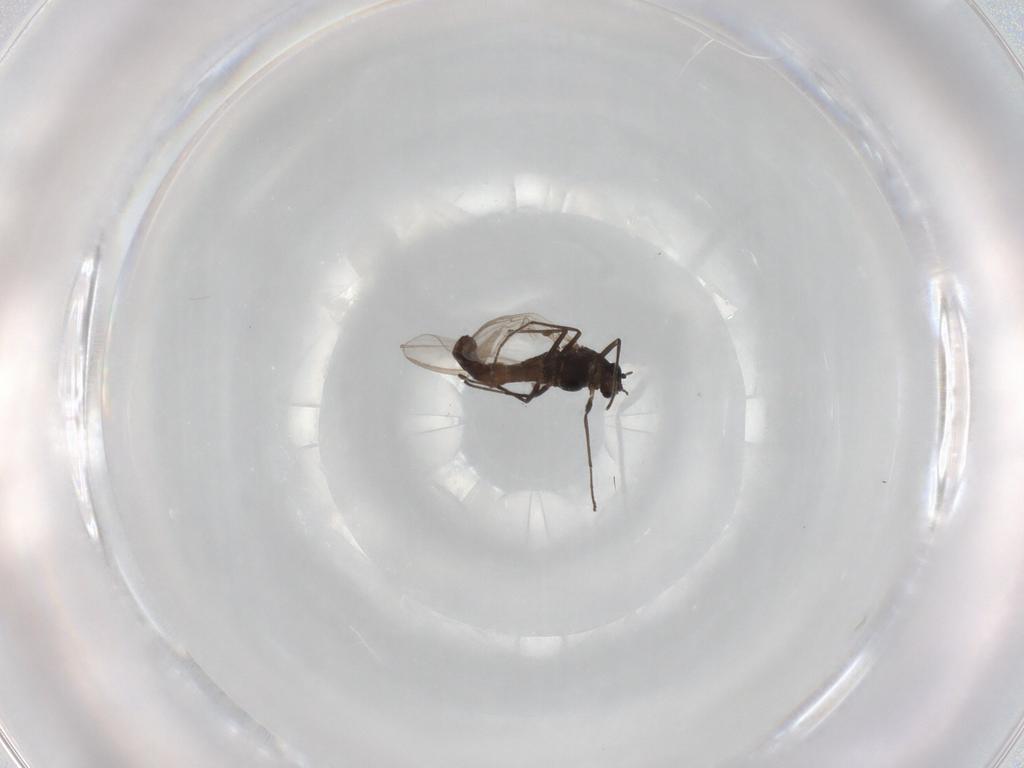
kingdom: Animalia
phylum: Arthropoda
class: Insecta
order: Diptera
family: Mycetophilidae
